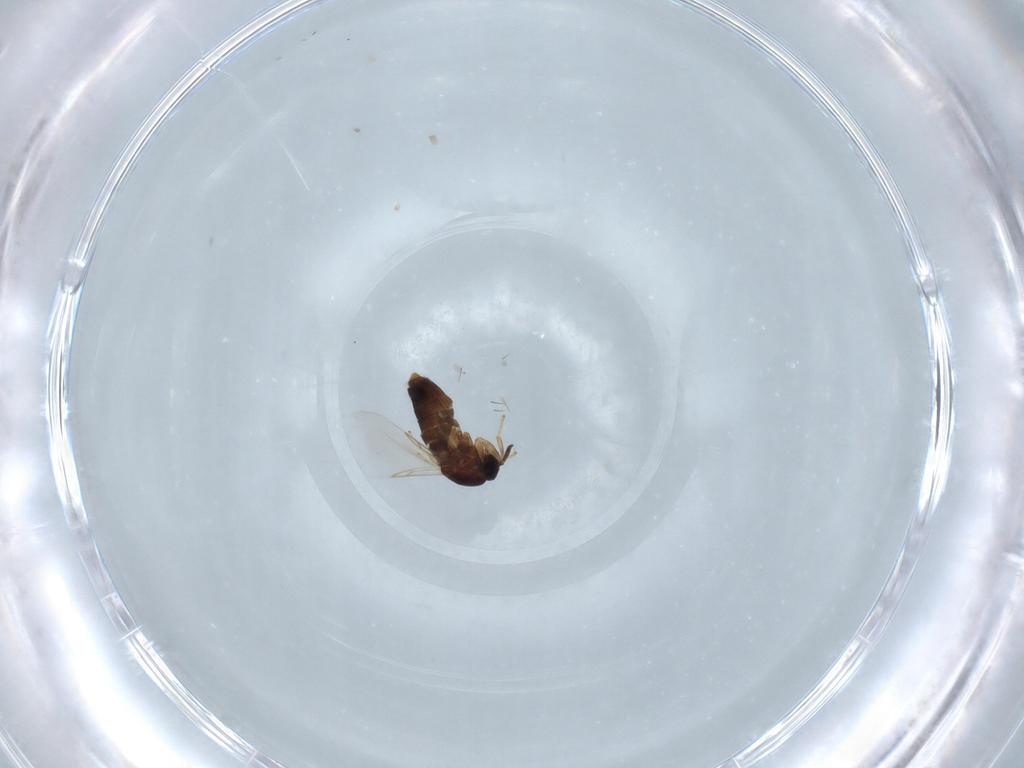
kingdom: Animalia
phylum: Arthropoda
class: Insecta
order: Diptera
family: Scatopsidae
